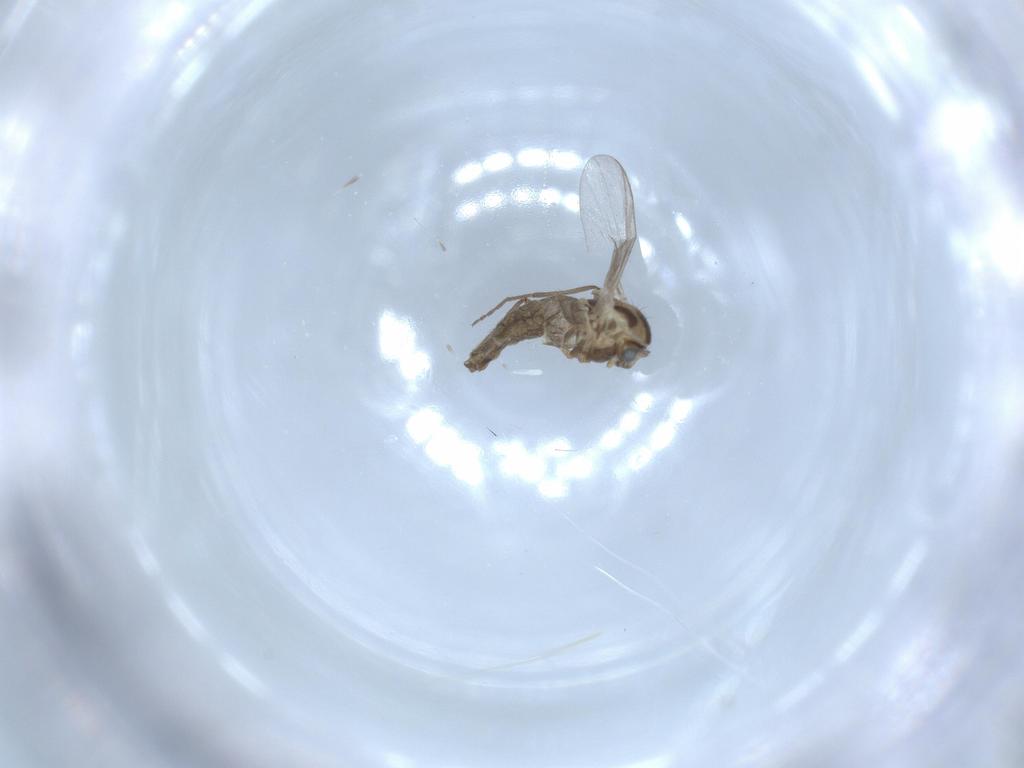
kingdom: Animalia
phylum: Arthropoda
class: Insecta
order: Diptera
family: Chironomidae
